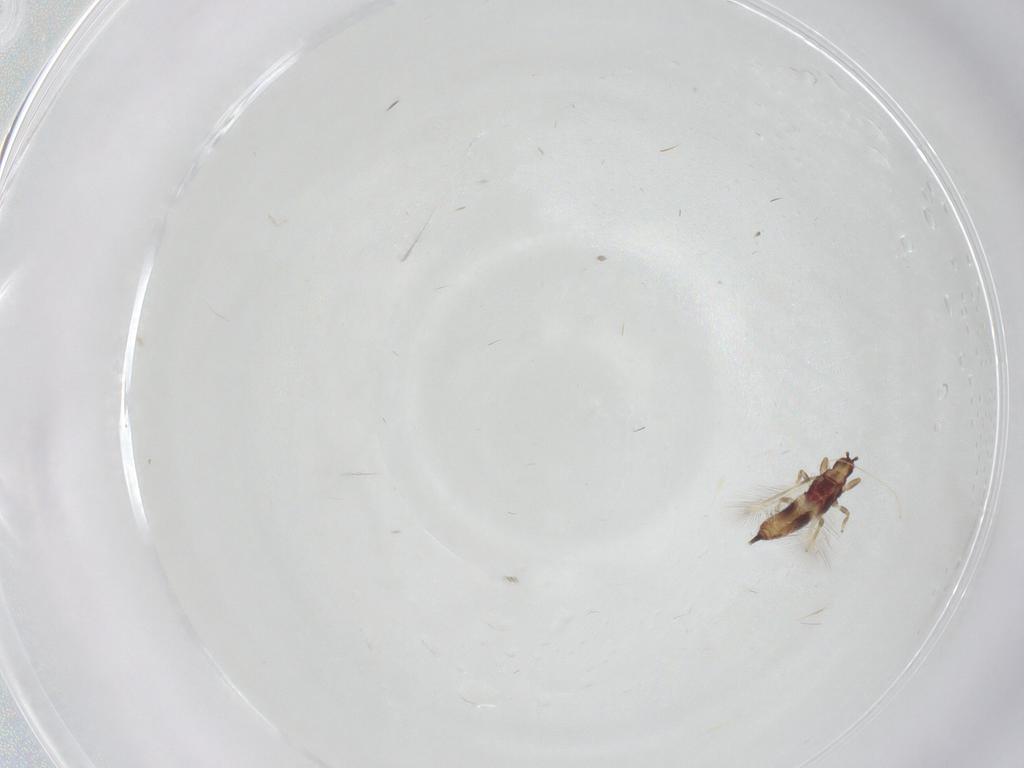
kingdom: Animalia
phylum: Arthropoda
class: Insecta
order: Thysanoptera
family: Phlaeothripidae
